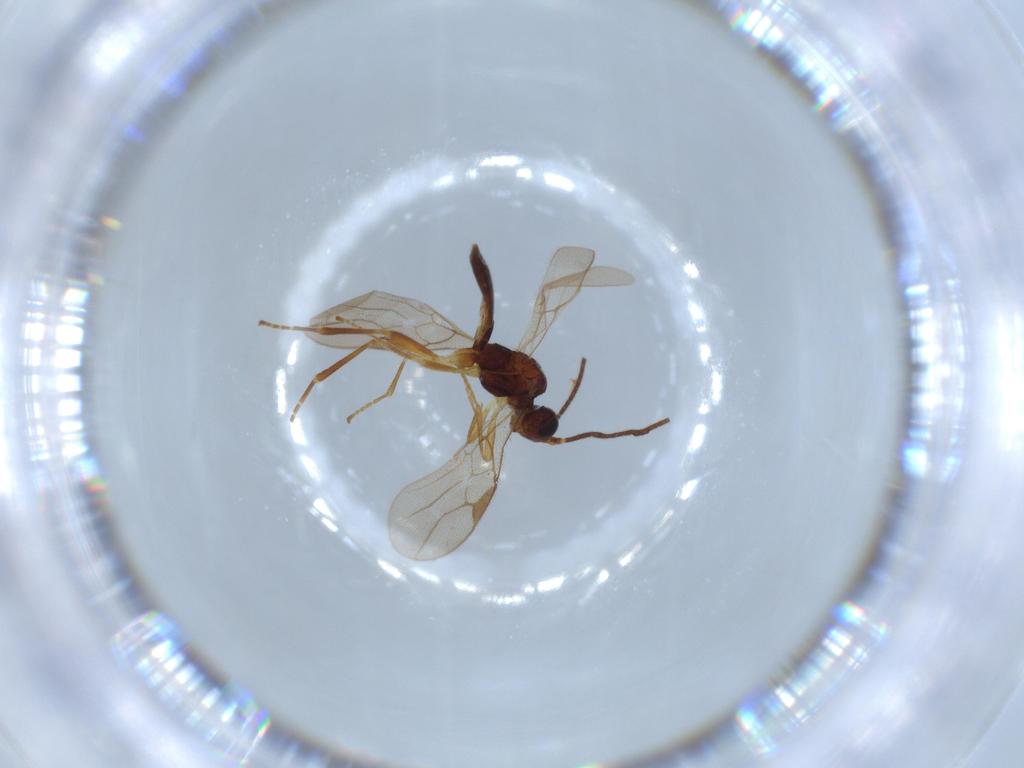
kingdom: Animalia
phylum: Arthropoda
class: Insecta
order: Hymenoptera
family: Braconidae
